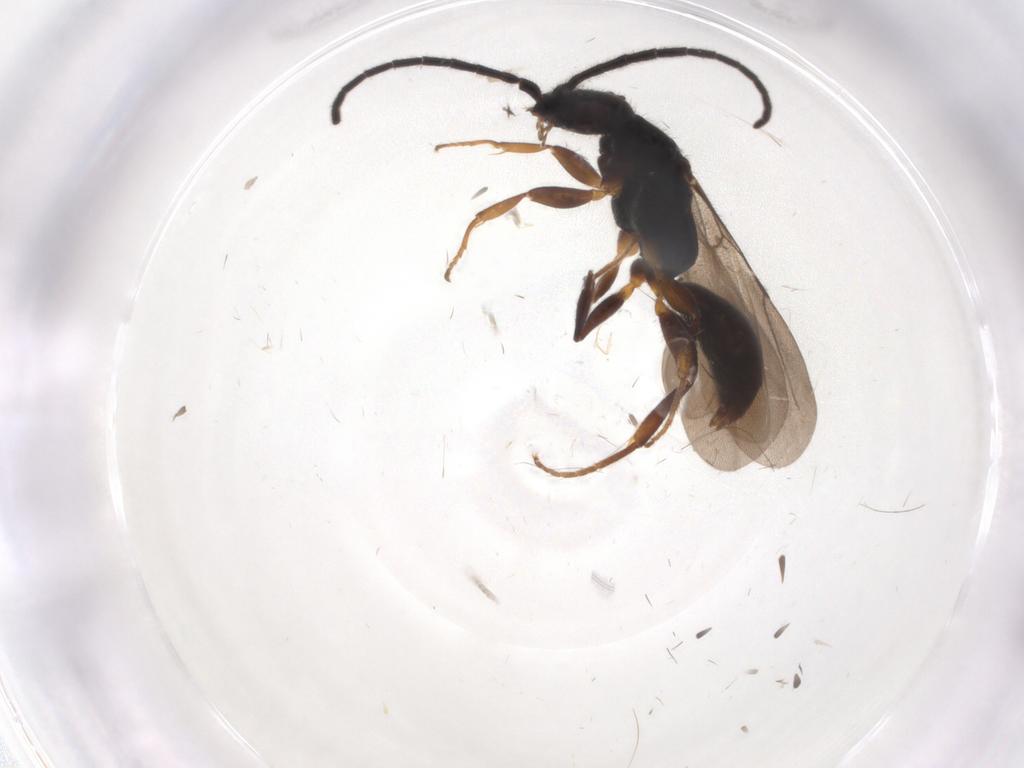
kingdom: Animalia
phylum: Arthropoda
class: Insecta
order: Hymenoptera
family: Bethylidae
